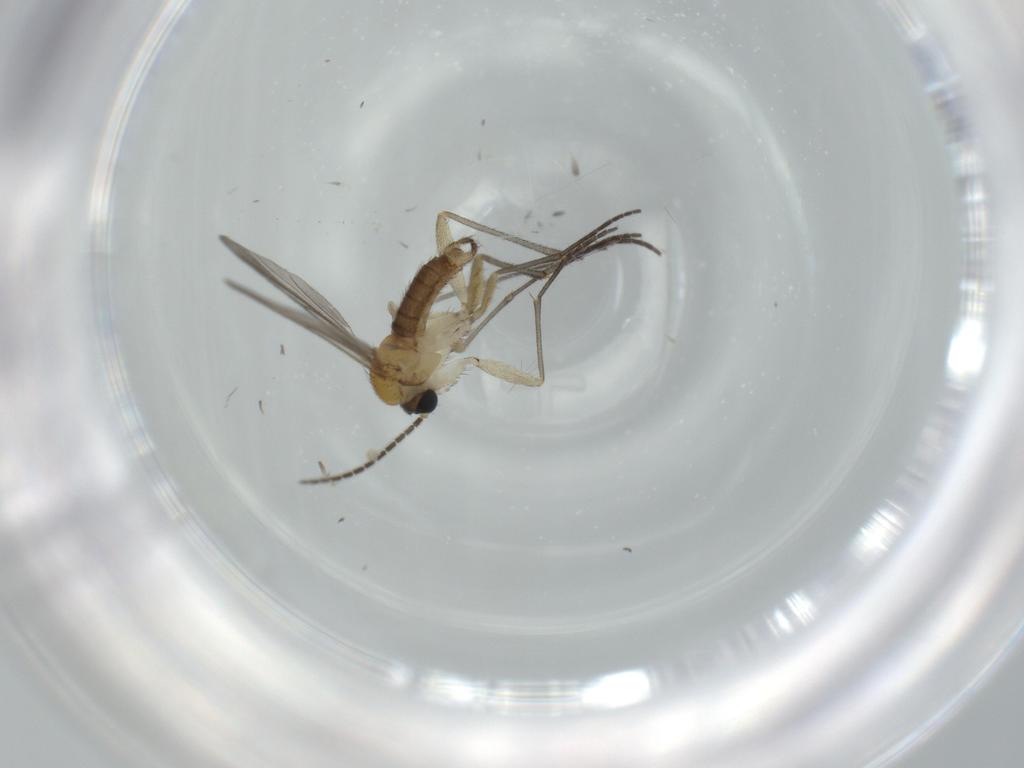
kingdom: Animalia
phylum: Arthropoda
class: Insecta
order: Diptera
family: Sciaridae
